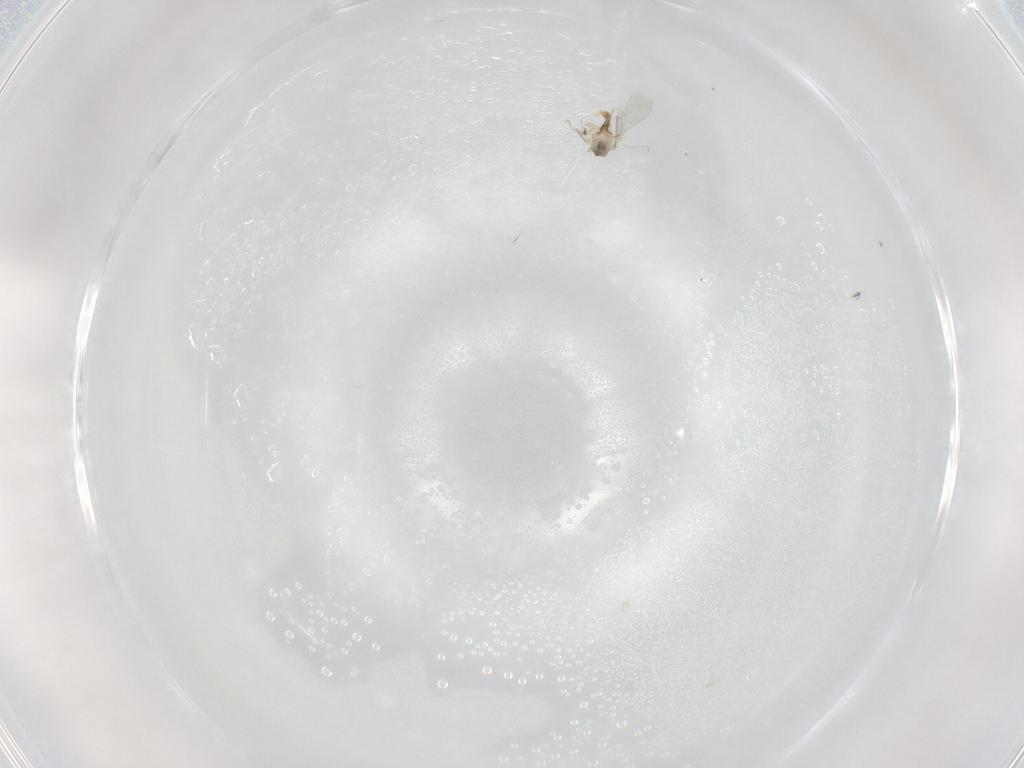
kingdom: Animalia
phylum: Arthropoda
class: Insecta
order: Diptera
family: Cecidomyiidae
